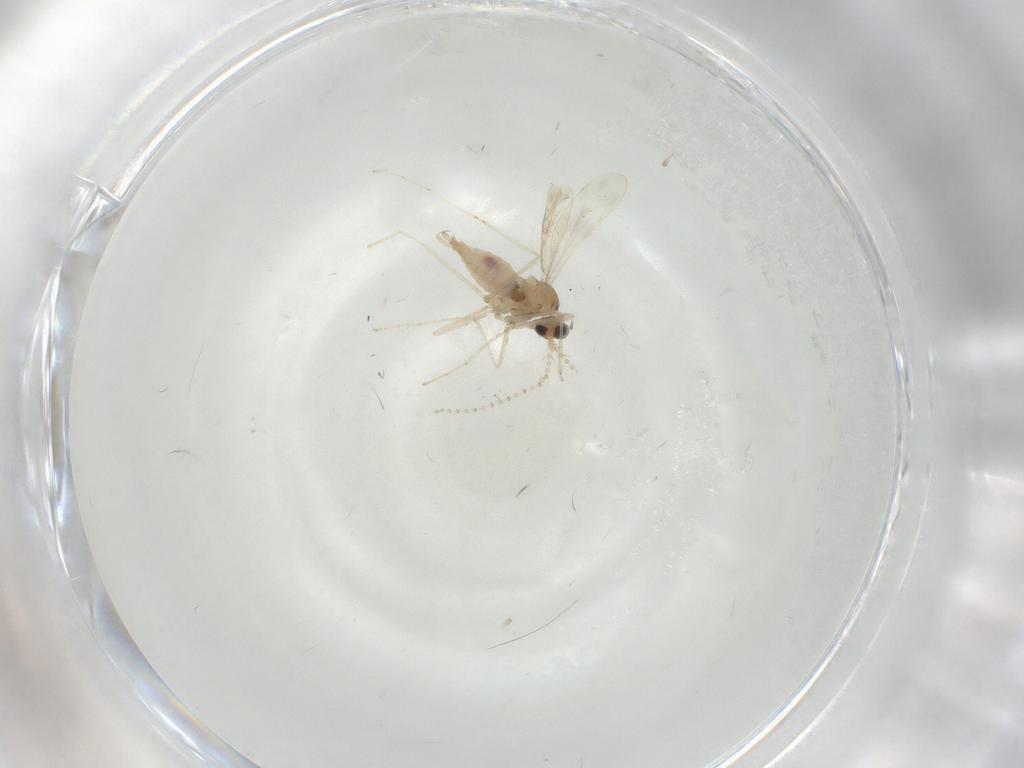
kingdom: Animalia
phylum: Arthropoda
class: Insecta
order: Diptera
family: Cecidomyiidae
